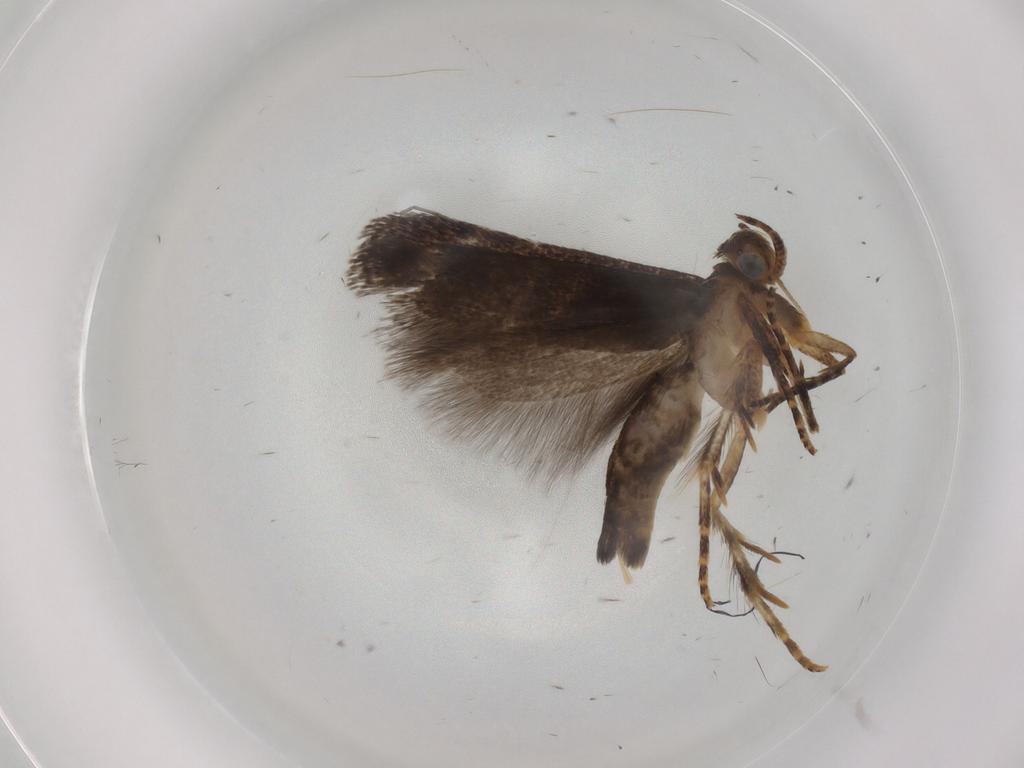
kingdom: Animalia
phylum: Arthropoda
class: Insecta
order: Lepidoptera
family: Gelechiidae
